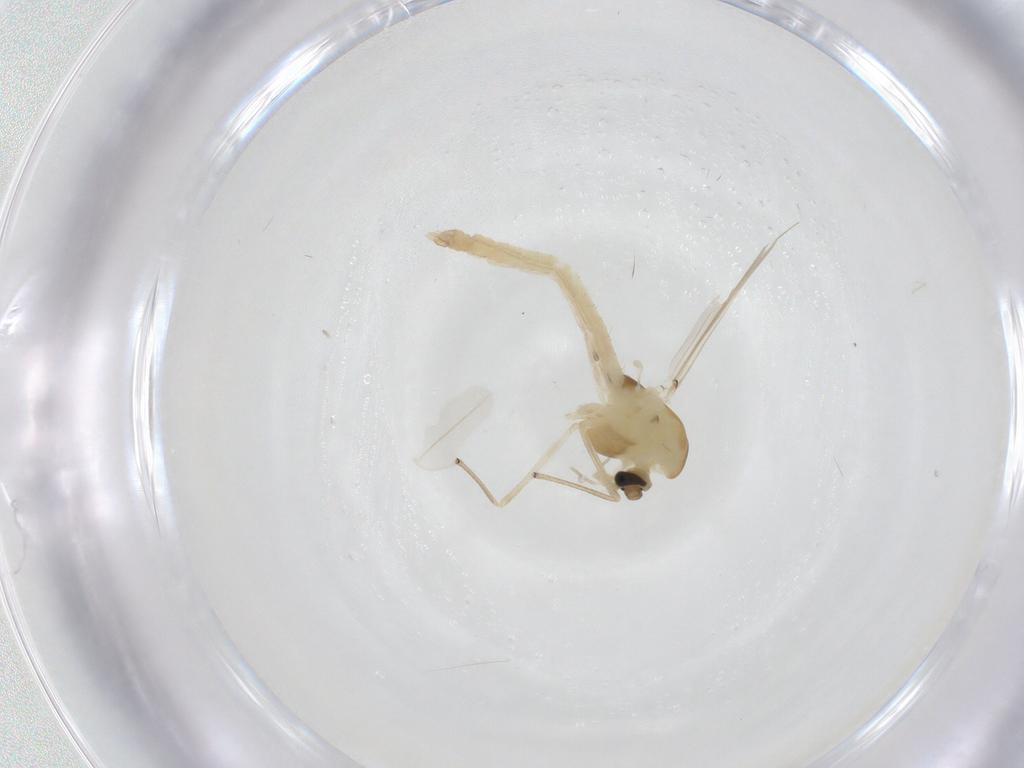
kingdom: Animalia
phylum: Arthropoda
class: Insecta
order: Diptera
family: Chironomidae
